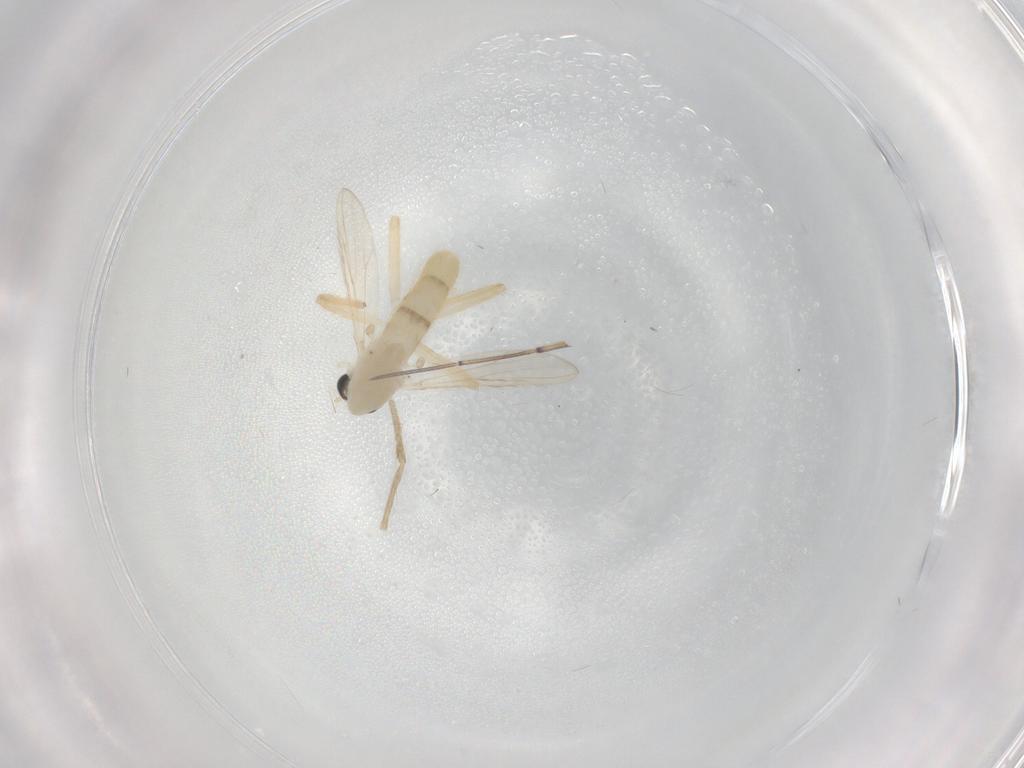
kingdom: Animalia
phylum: Arthropoda
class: Insecta
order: Diptera
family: Chironomidae
